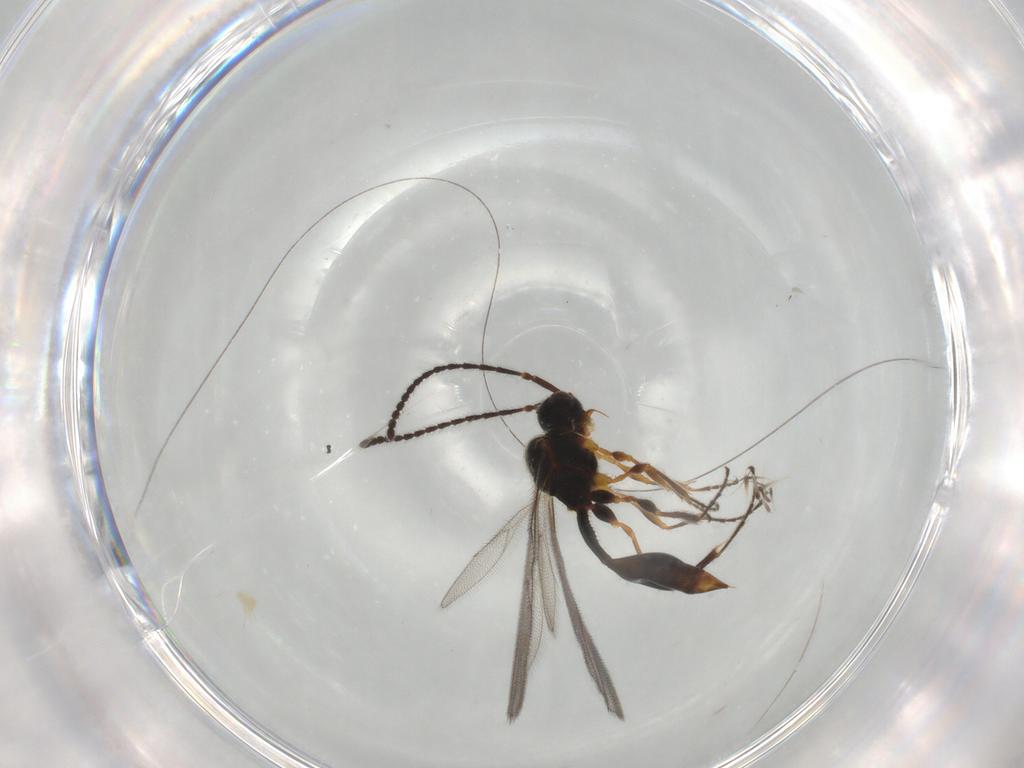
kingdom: Animalia
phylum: Arthropoda
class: Insecta
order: Hymenoptera
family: Diapriidae
